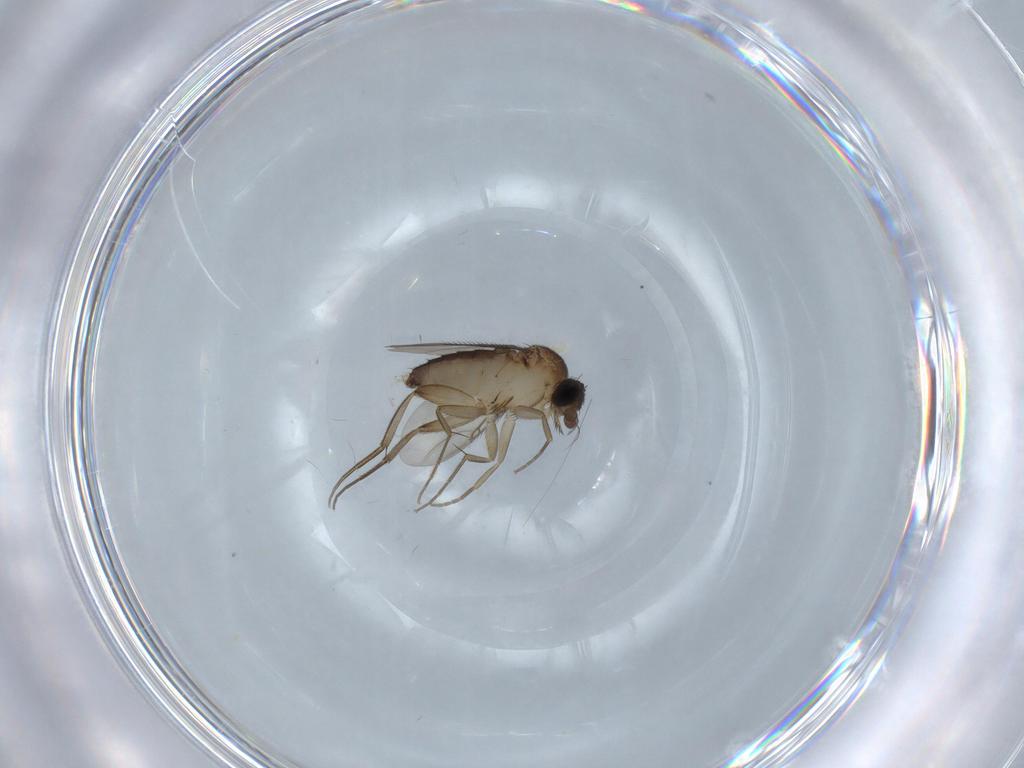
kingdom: Animalia
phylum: Arthropoda
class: Insecta
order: Diptera
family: Phoridae
